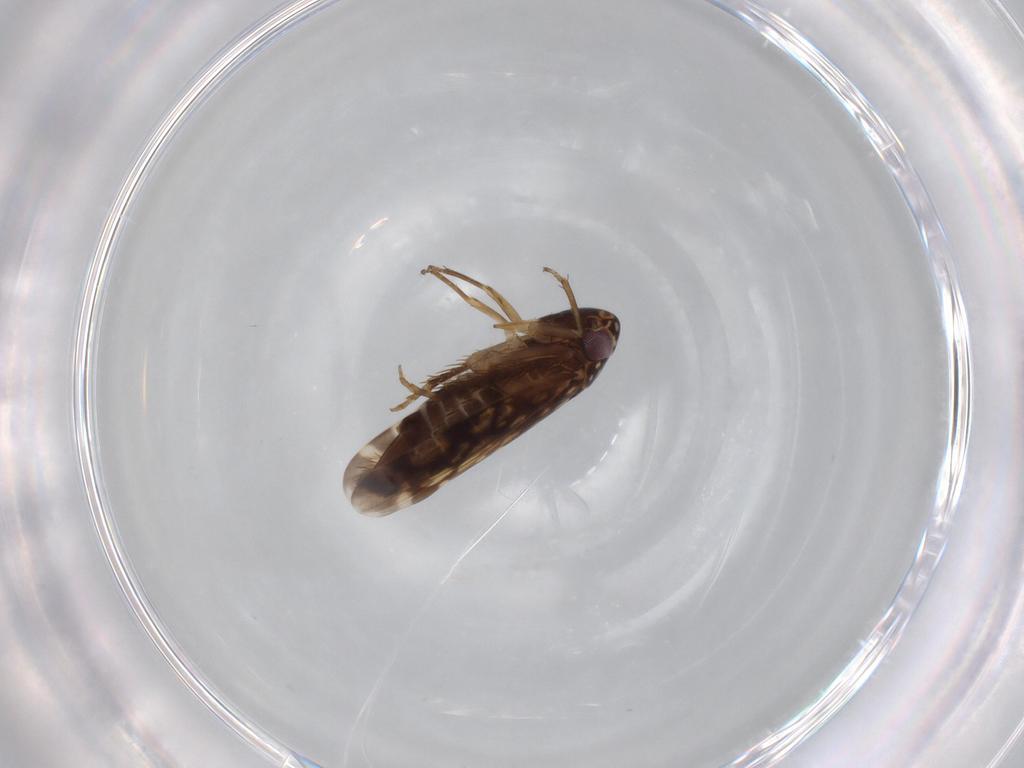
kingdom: Animalia
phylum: Arthropoda
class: Insecta
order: Hemiptera
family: Cicadellidae
